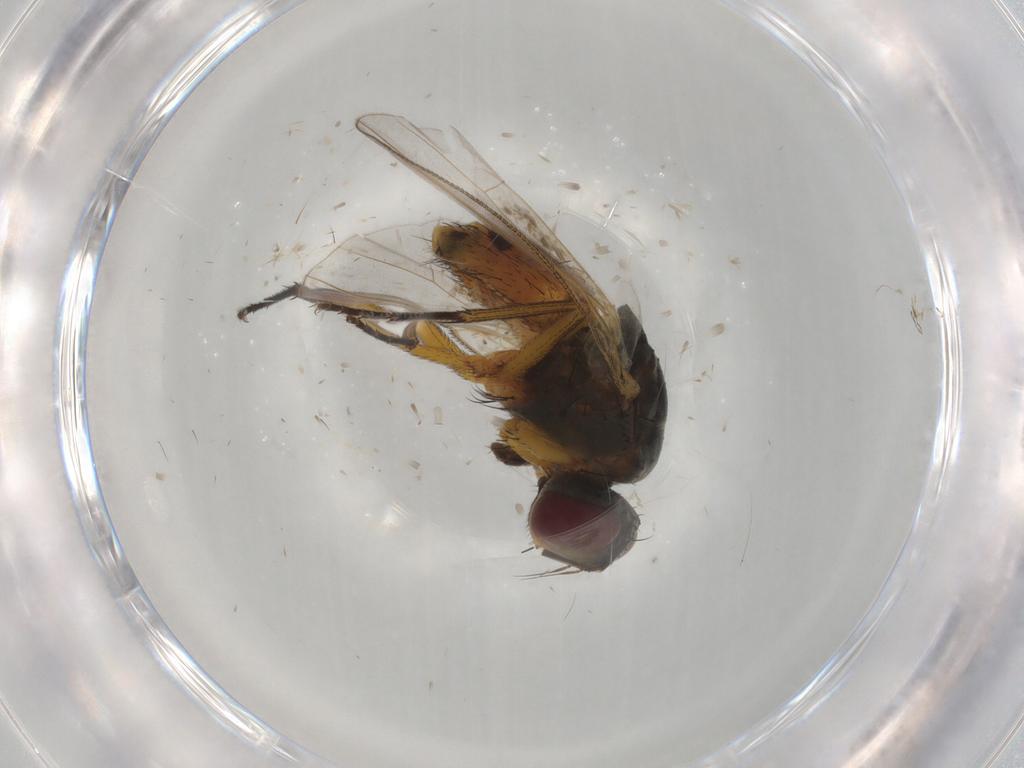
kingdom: Animalia
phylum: Arthropoda
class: Insecta
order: Diptera
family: Muscidae
